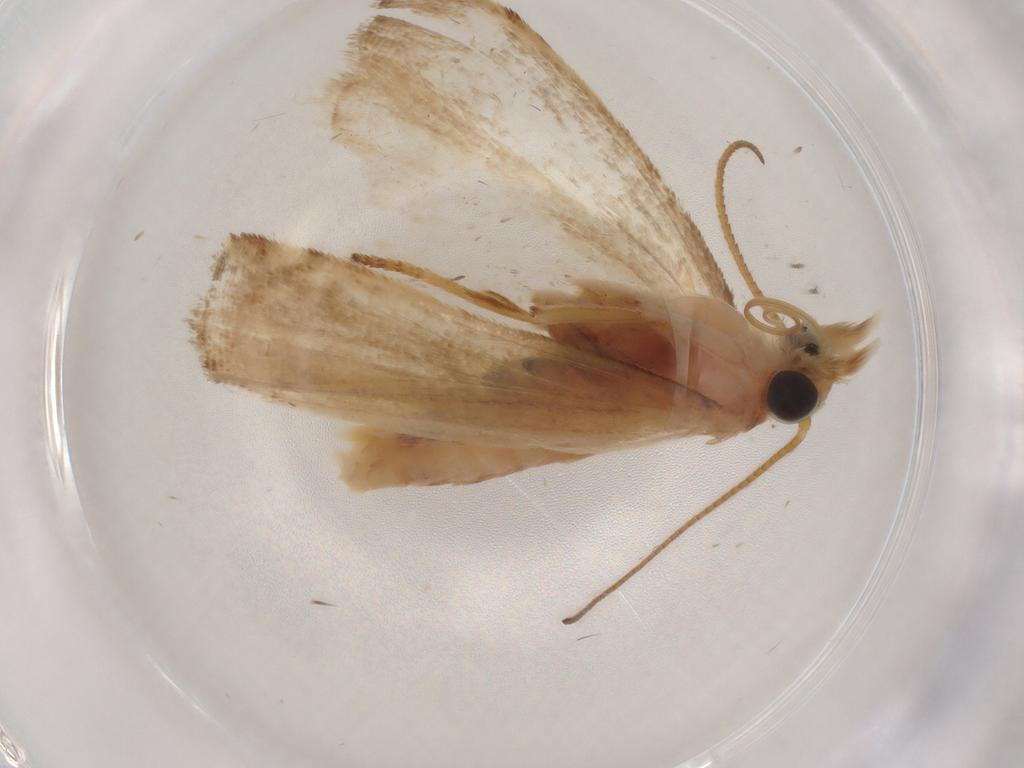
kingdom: Animalia
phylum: Arthropoda
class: Insecta
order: Lepidoptera
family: Pyralidae
